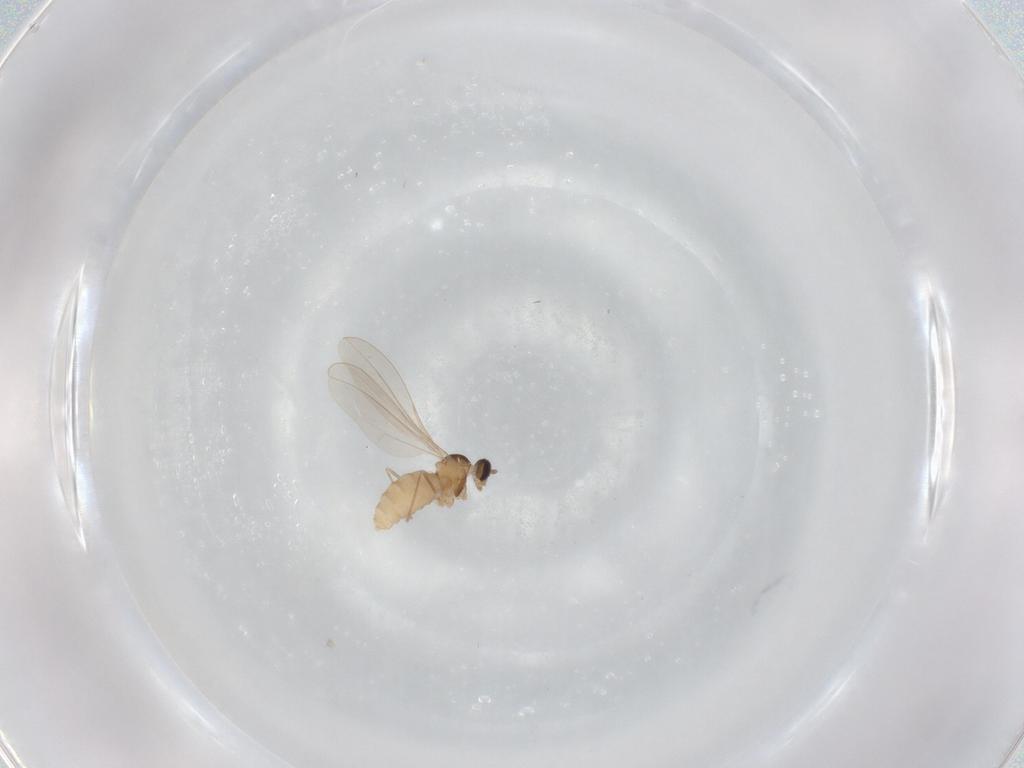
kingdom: Animalia
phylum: Arthropoda
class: Insecta
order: Diptera
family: Cecidomyiidae
